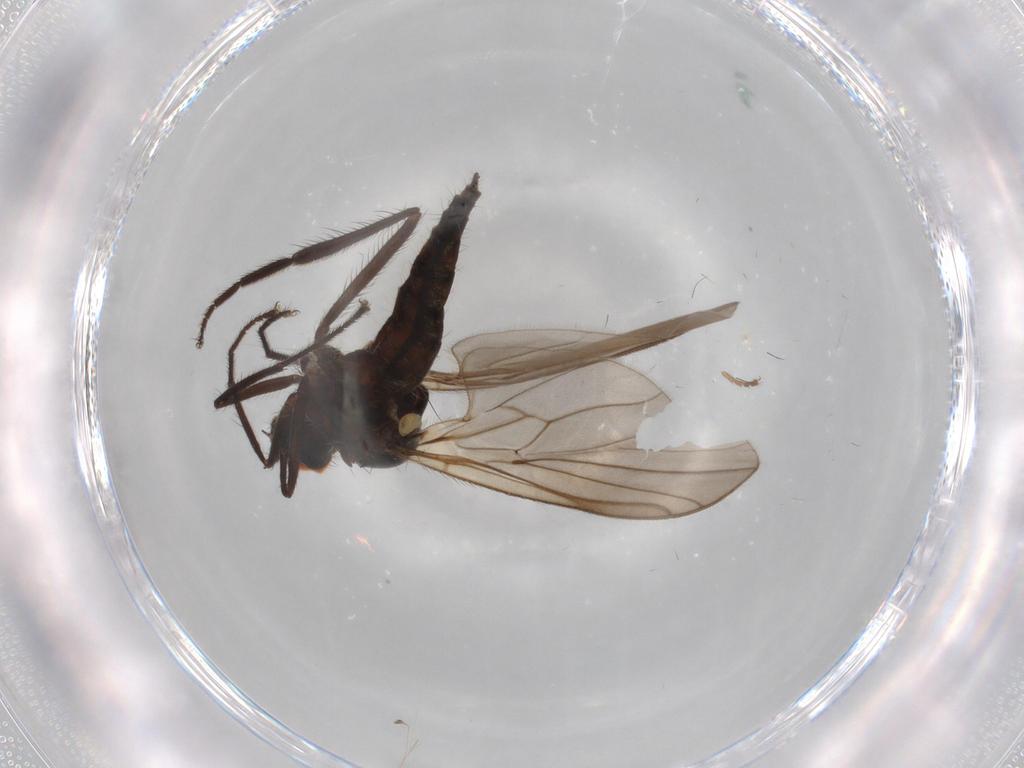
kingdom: Animalia
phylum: Arthropoda
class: Insecta
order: Diptera
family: Hybotidae
